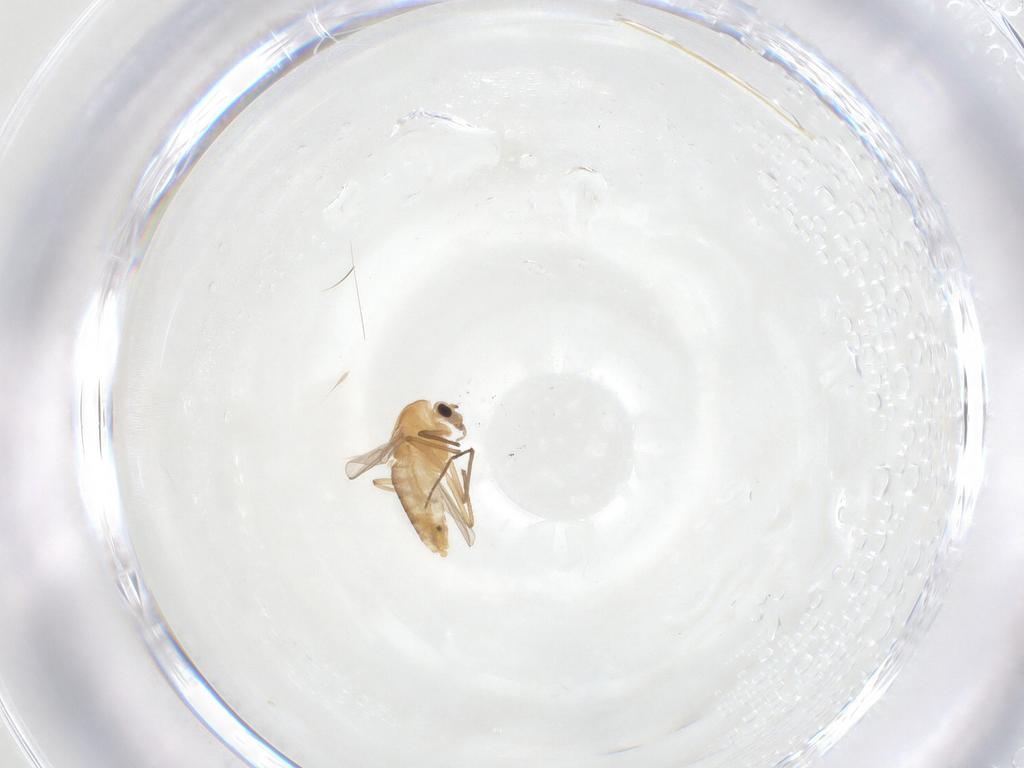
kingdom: Animalia
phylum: Arthropoda
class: Insecta
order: Diptera
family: Chironomidae
